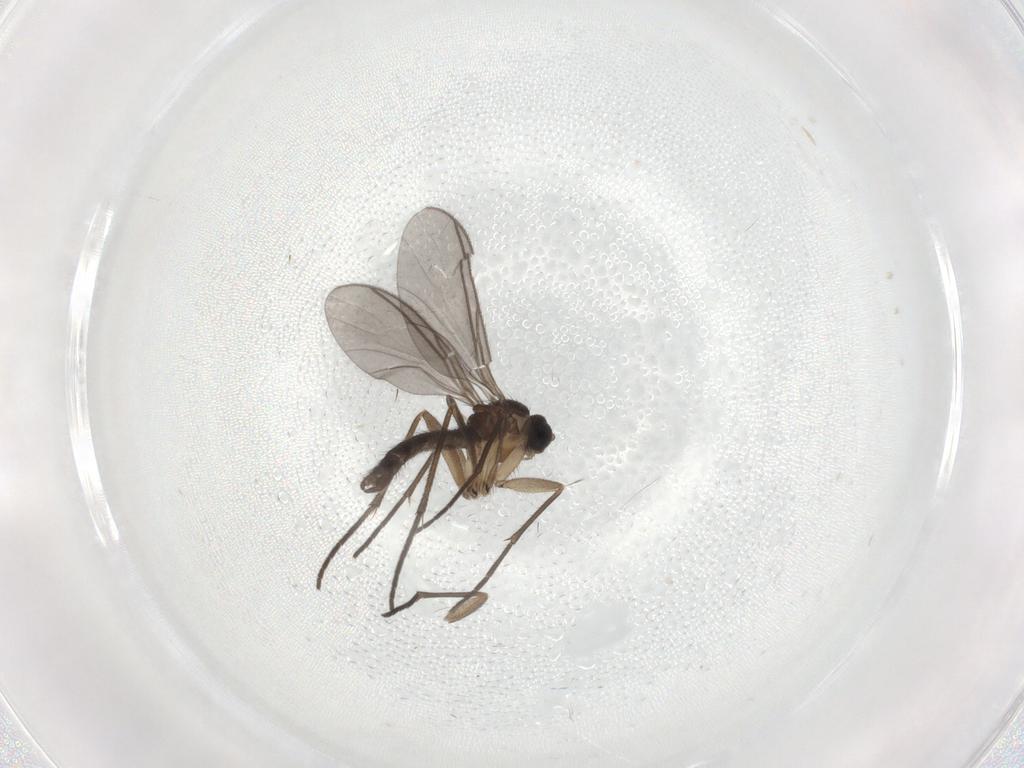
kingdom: Animalia
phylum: Arthropoda
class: Insecta
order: Diptera
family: Sciaridae
